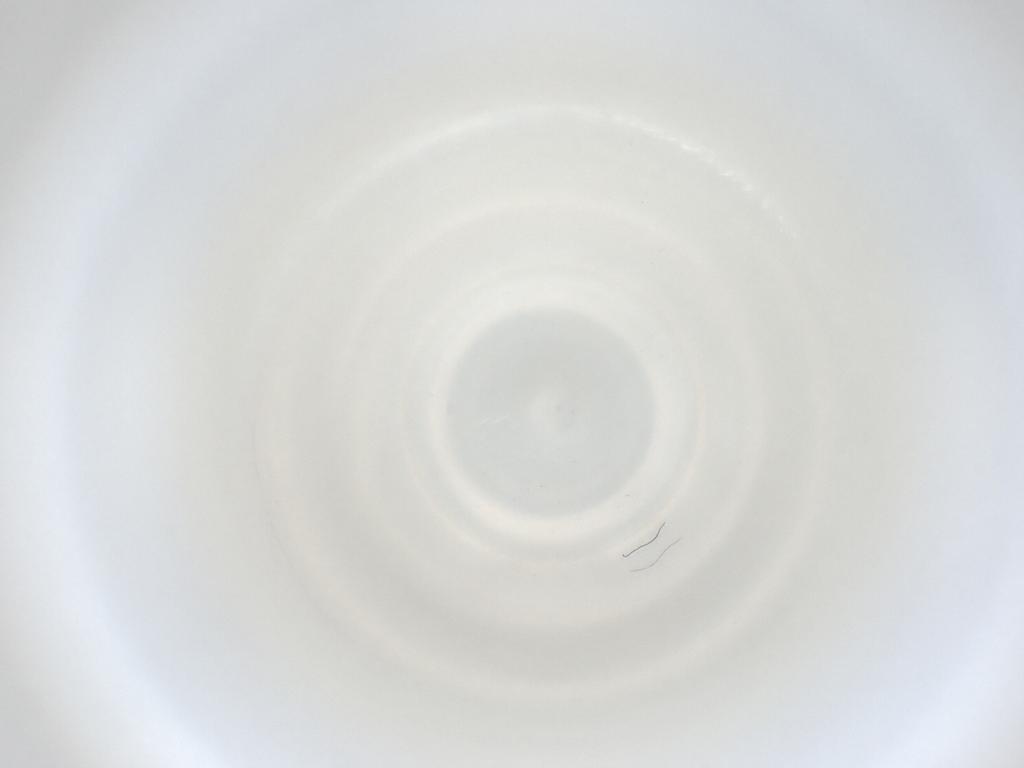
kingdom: Animalia
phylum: Arthropoda
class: Insecta
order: Diptera
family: Cecidomyiidae
